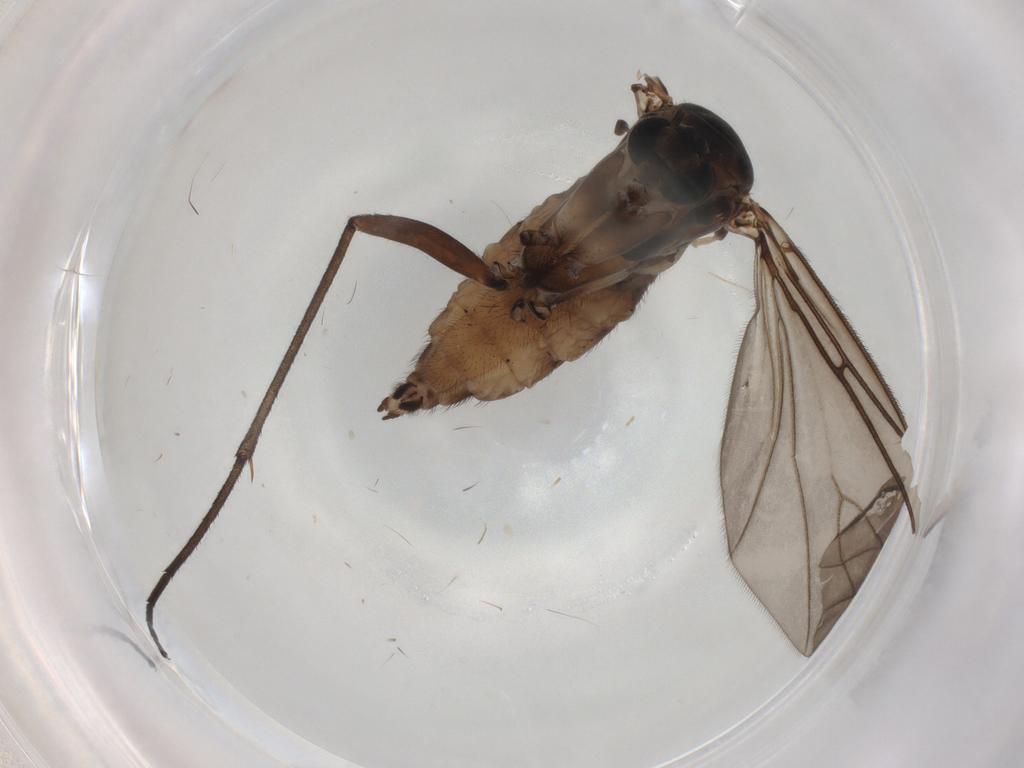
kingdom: Animalia
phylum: Arthropoda
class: Insecta
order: Diptera
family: Sciaridae
